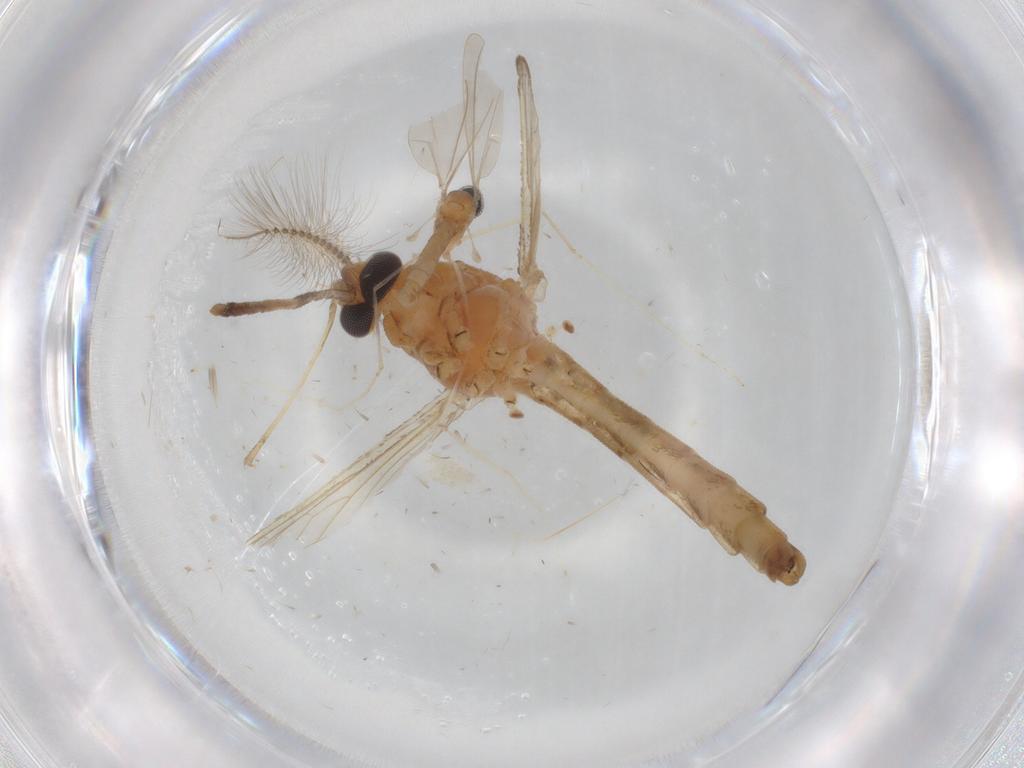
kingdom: Animalia
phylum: Arthropoda
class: Insecta
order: Diptera
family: Cecidomyiidae
